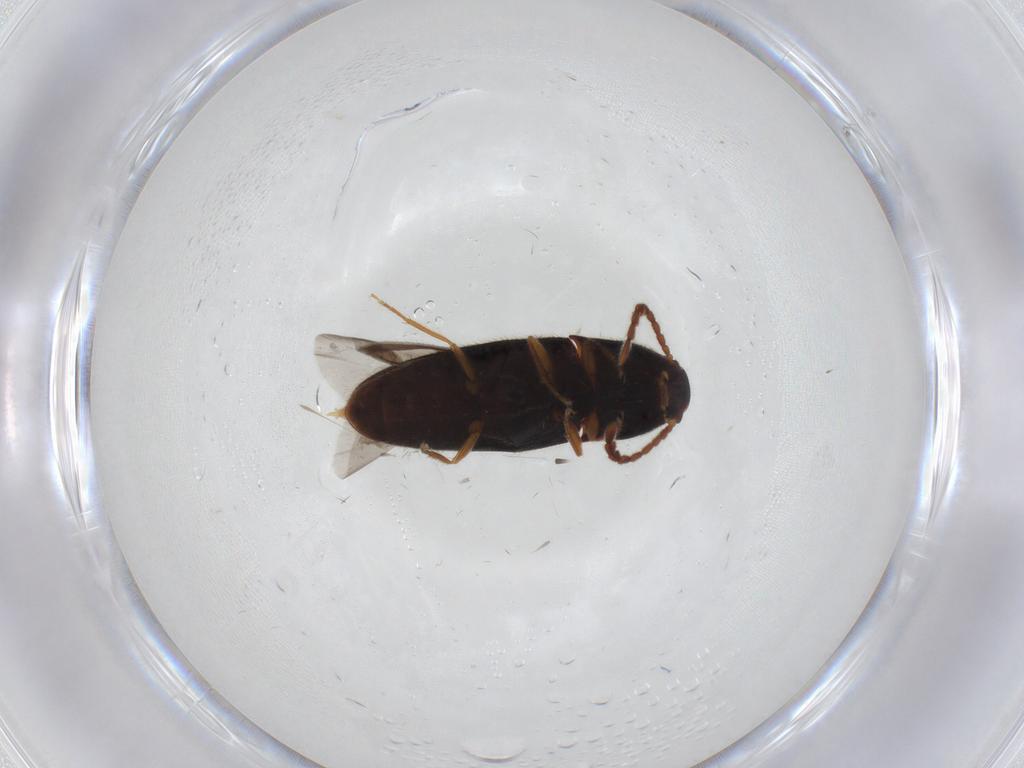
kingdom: Animalia
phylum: Arthropoda
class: Insecta
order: Coleoptera
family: Elateridae
